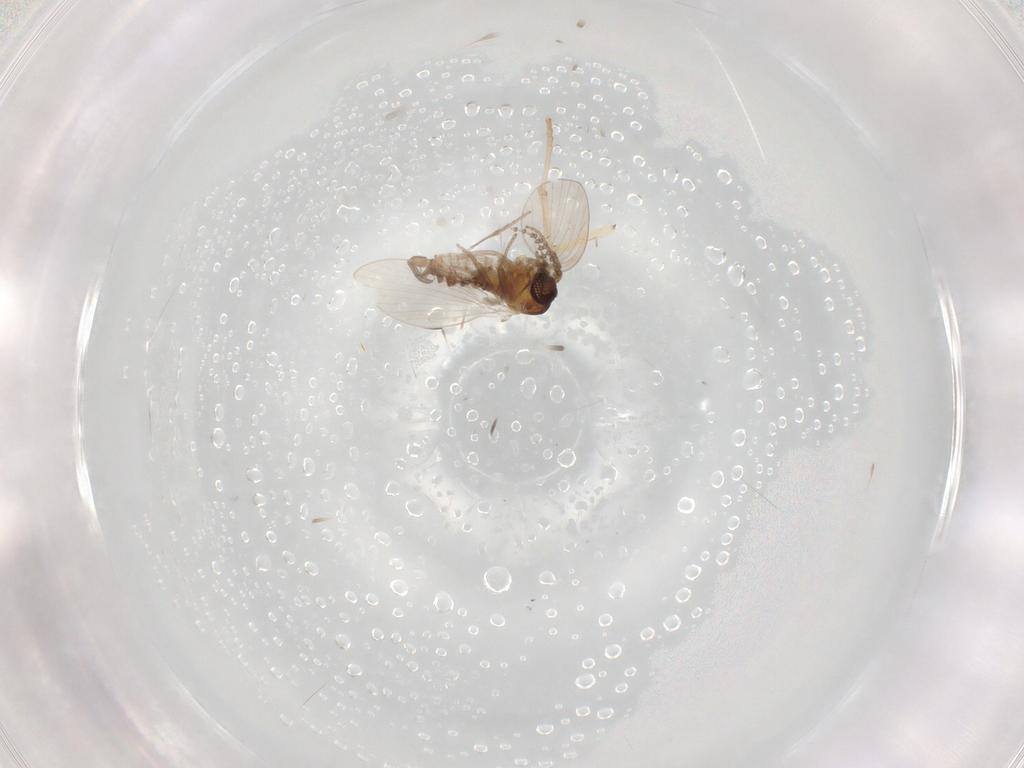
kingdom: Animalia
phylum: Arthropoda
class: Insecta
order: Diptera
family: Psychodidae
